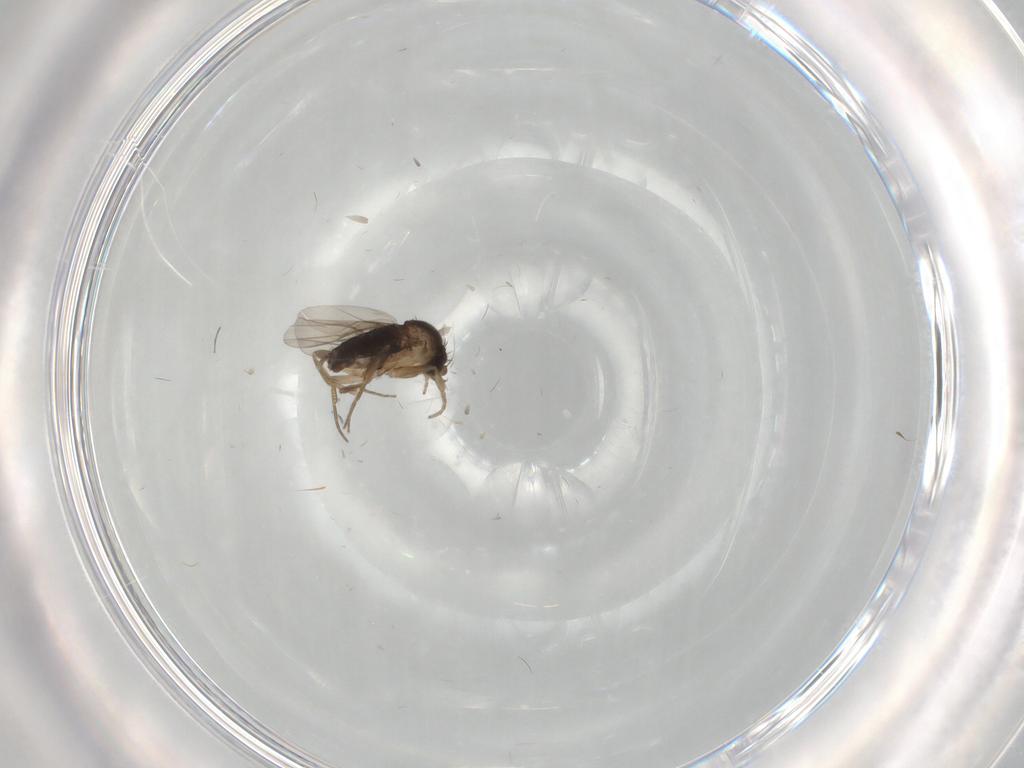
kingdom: Animalia
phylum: Arthropoda
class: Insecta
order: Diptera
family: Phoridae
